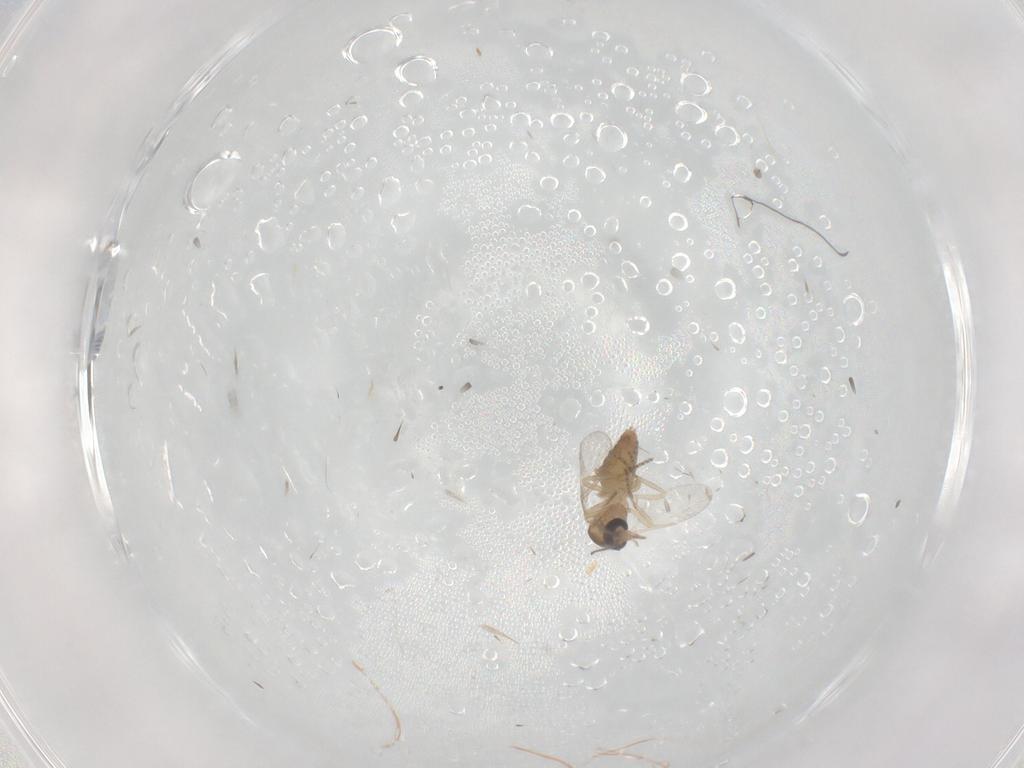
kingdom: Animalia
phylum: Arthropoda
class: Insecta
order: Diptera
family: Ceratopogonidae
